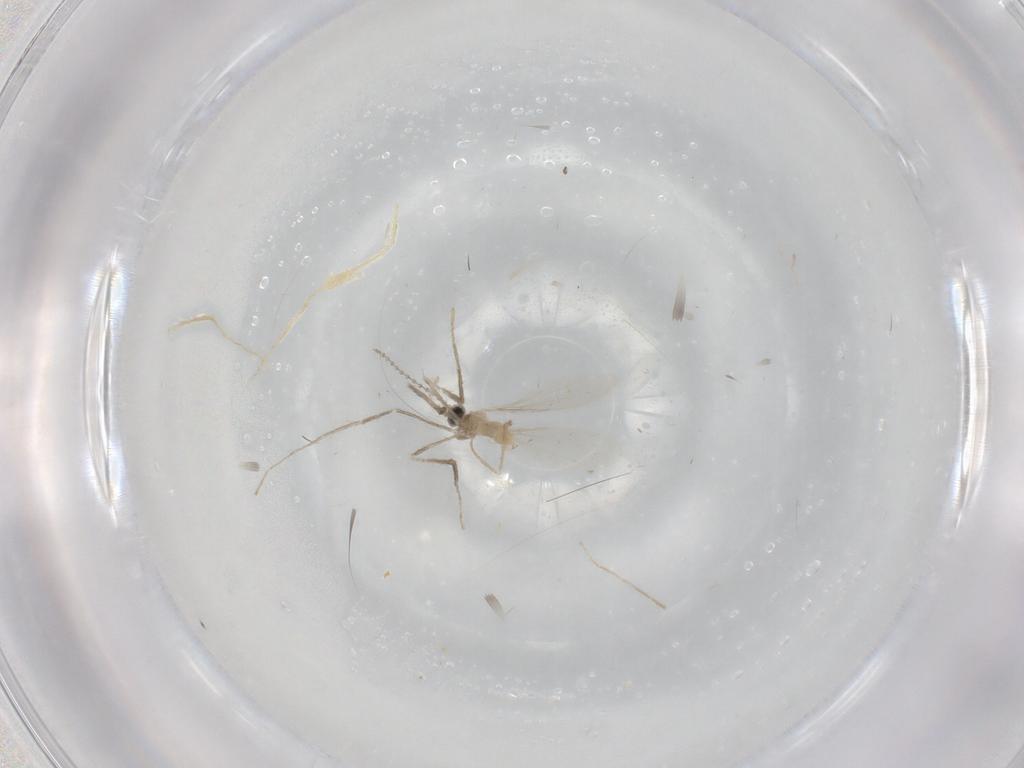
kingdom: Animalia
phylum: Arthropoda
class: Insecta
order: Diptera
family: Cecidomyiidae
